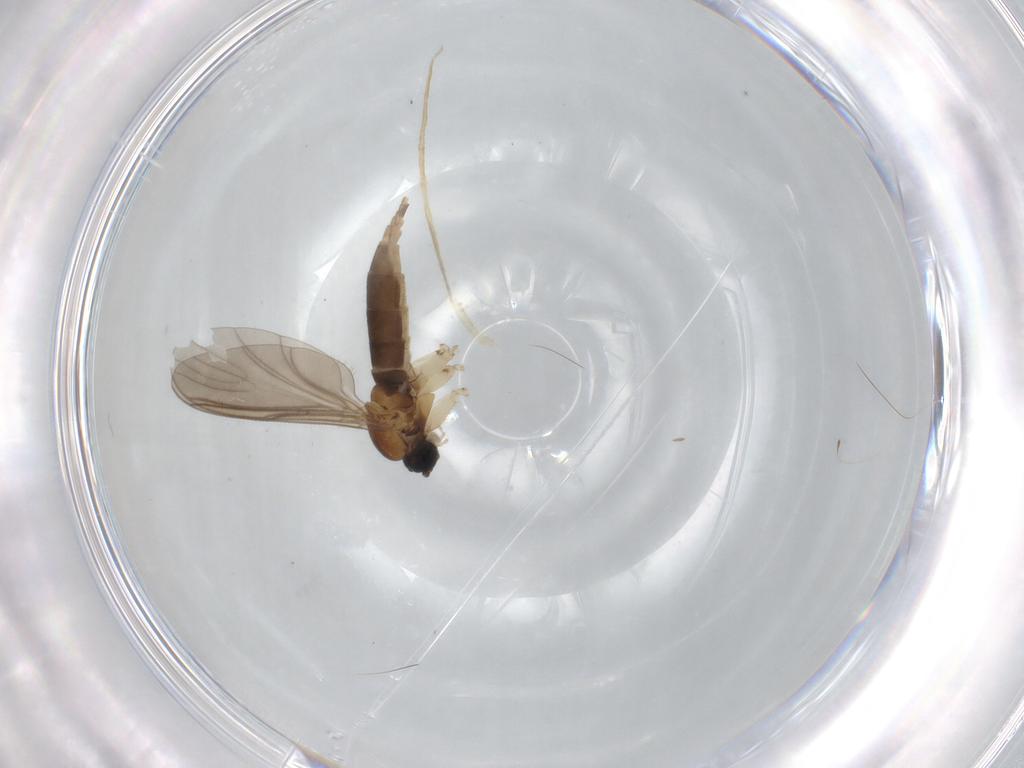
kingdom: Animalia
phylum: Arthropoda
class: Insecta
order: Diptera
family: Sciaridae
